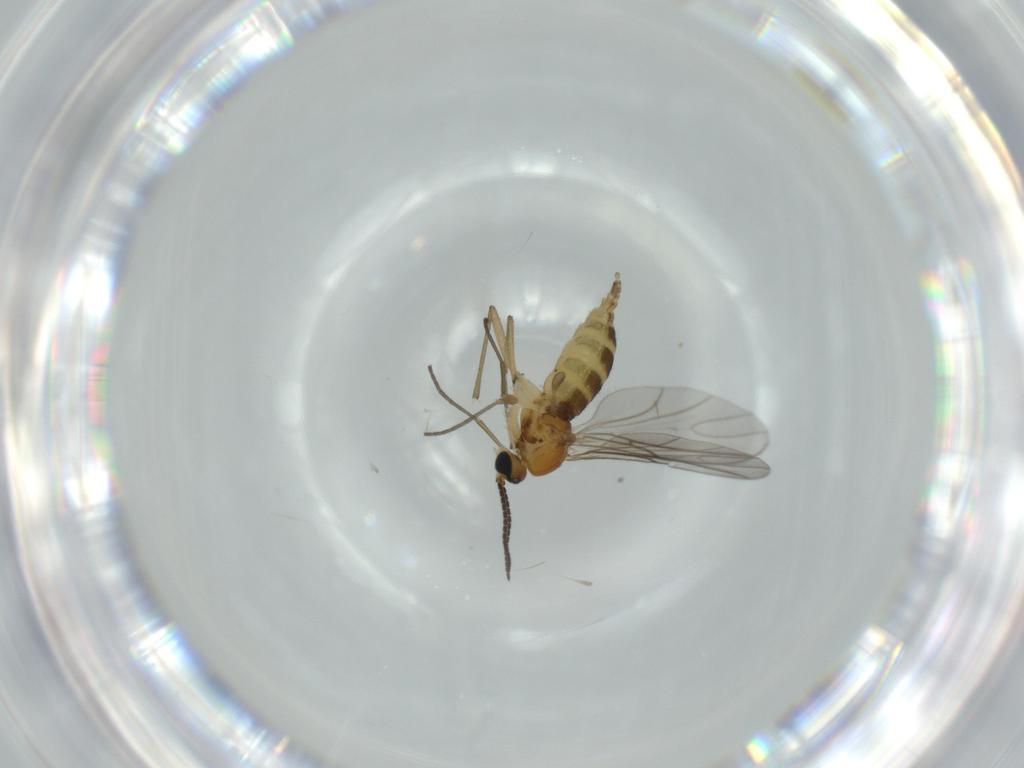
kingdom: Animalia
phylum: Arthropoda
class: Insecta
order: Diptera
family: Sciaridae
